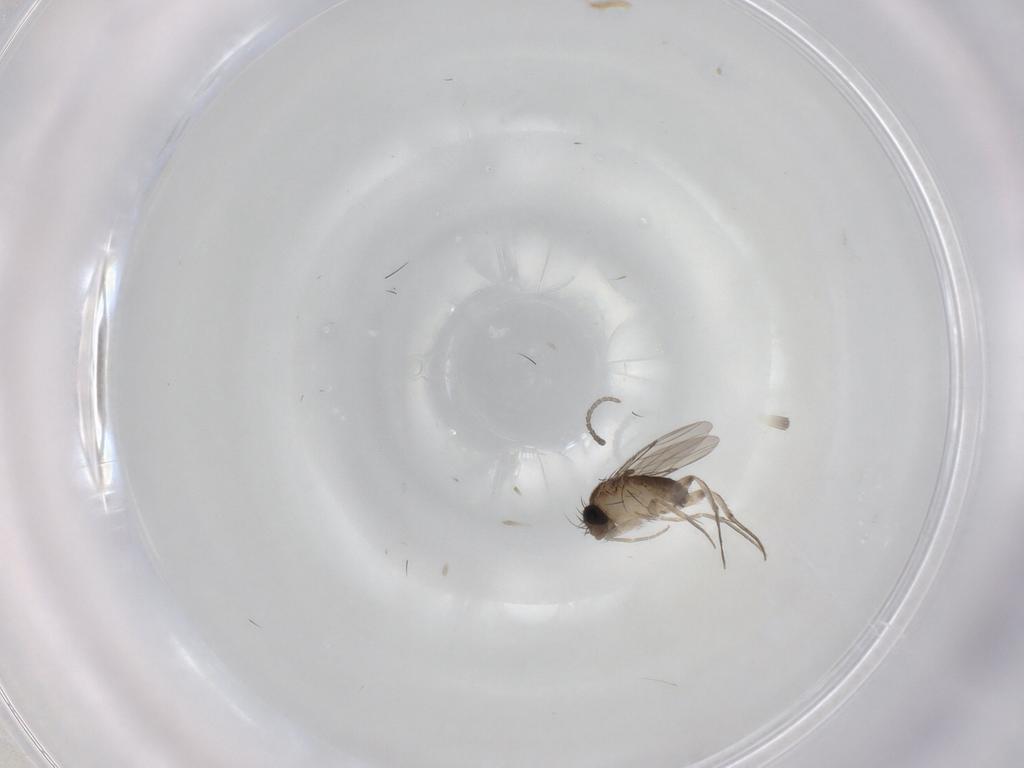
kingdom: Animalia
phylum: Arthropoda
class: Insecta
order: Diptera
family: Phoridae
